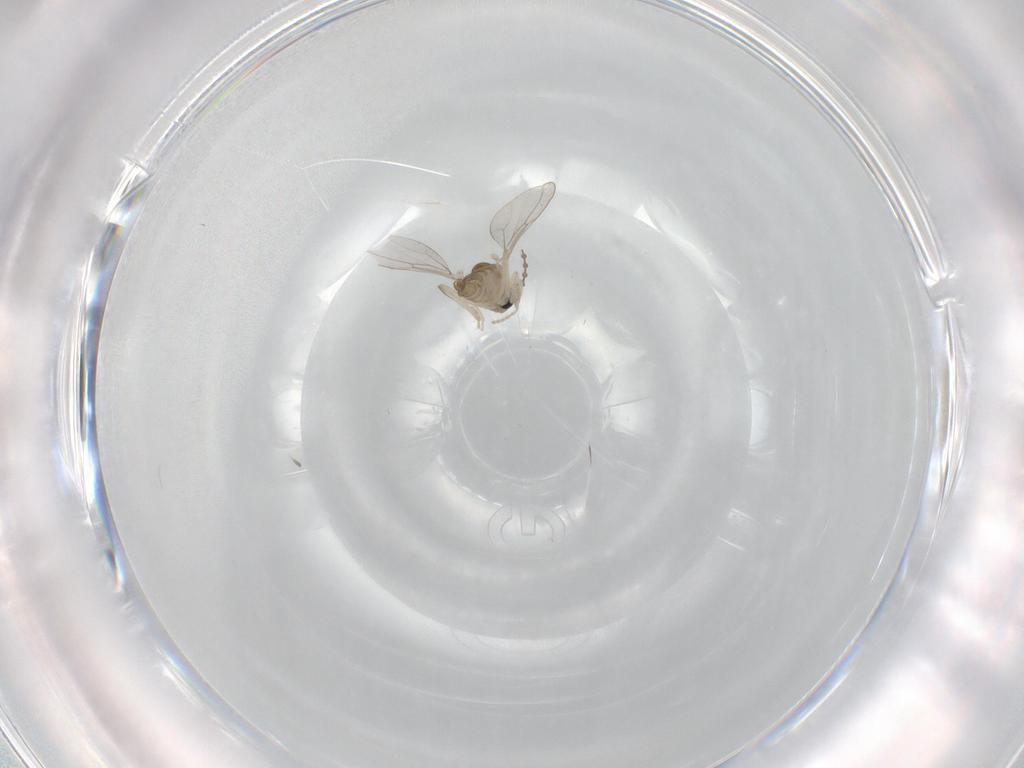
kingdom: Animalia
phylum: Arthropoda
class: Insecta
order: Diptera
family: Cecidomyiidae
